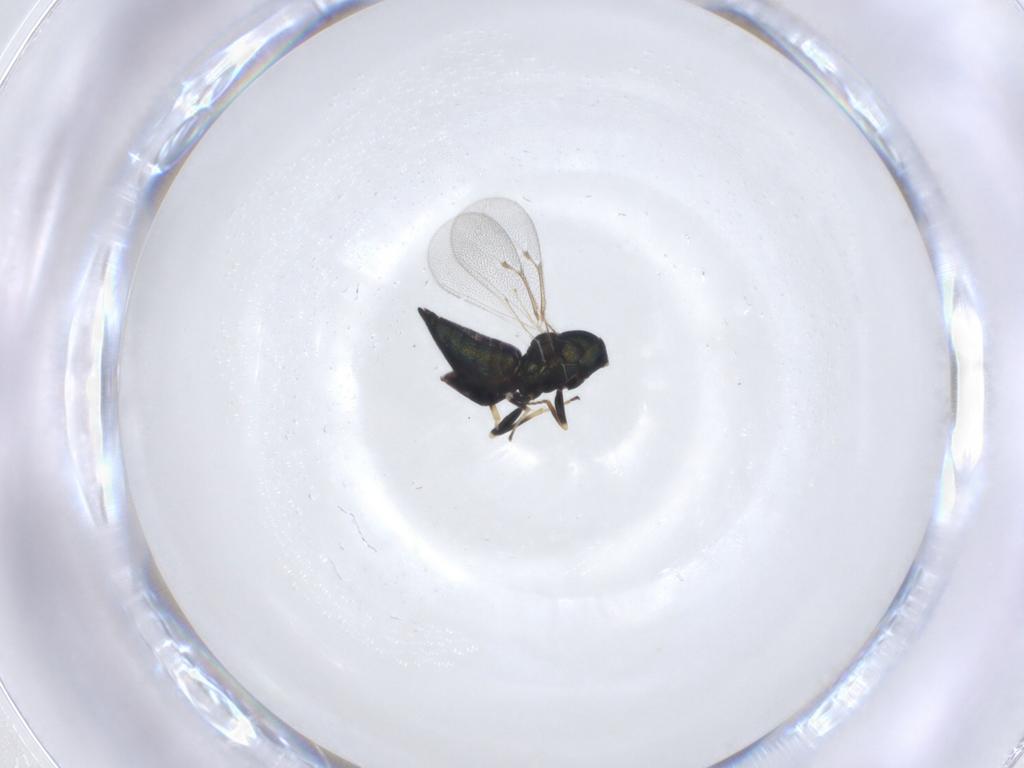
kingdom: Animalia
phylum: Arthropoda
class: Insecta
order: Hymenoptera
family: Eulophidae
